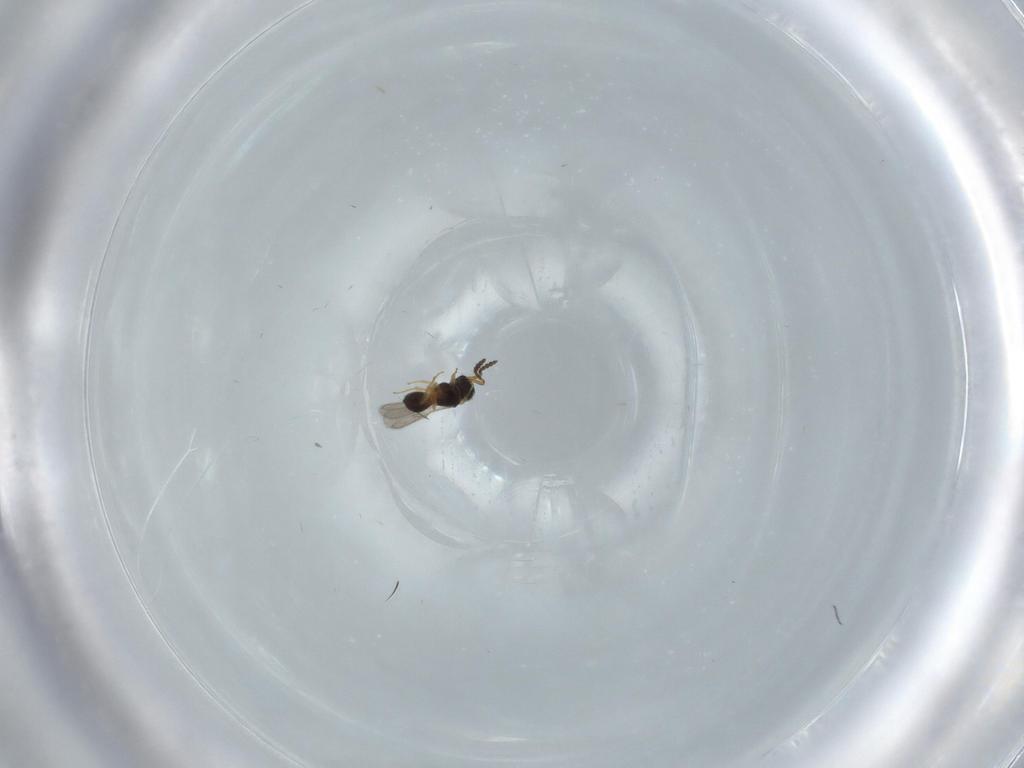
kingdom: Animalia
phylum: Arthropoda
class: Insecta
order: Hymenoptera
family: Scelionidae
